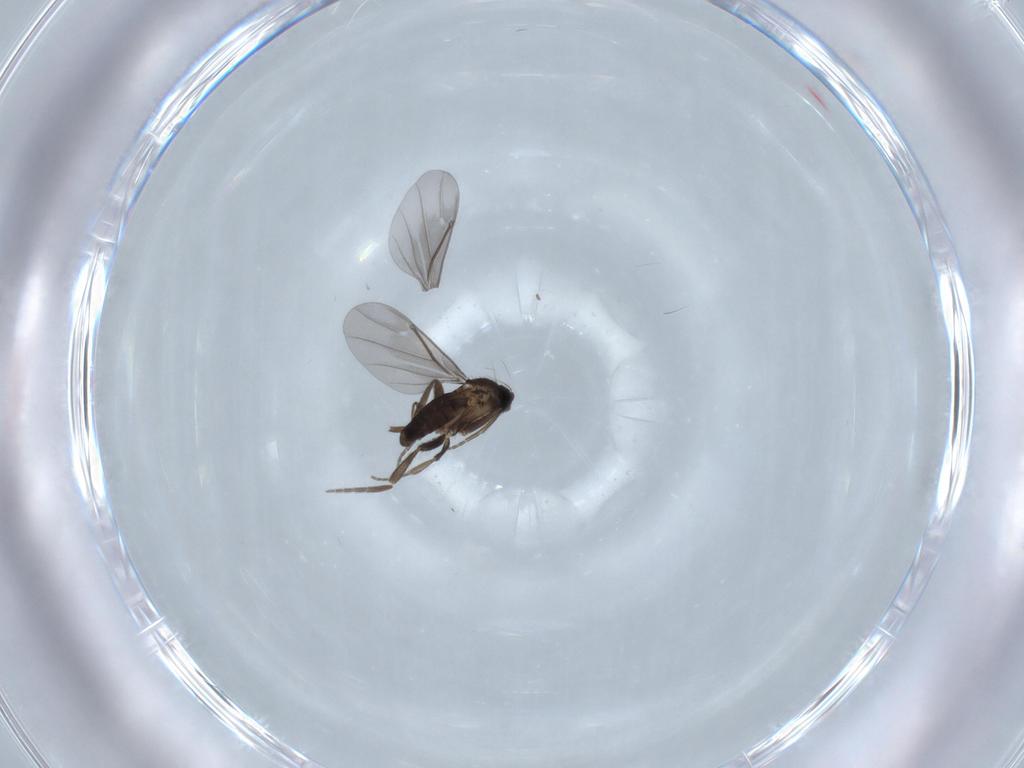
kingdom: Animalia
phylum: Arthropoda
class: Insecta
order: Diptera
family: Phoridae
